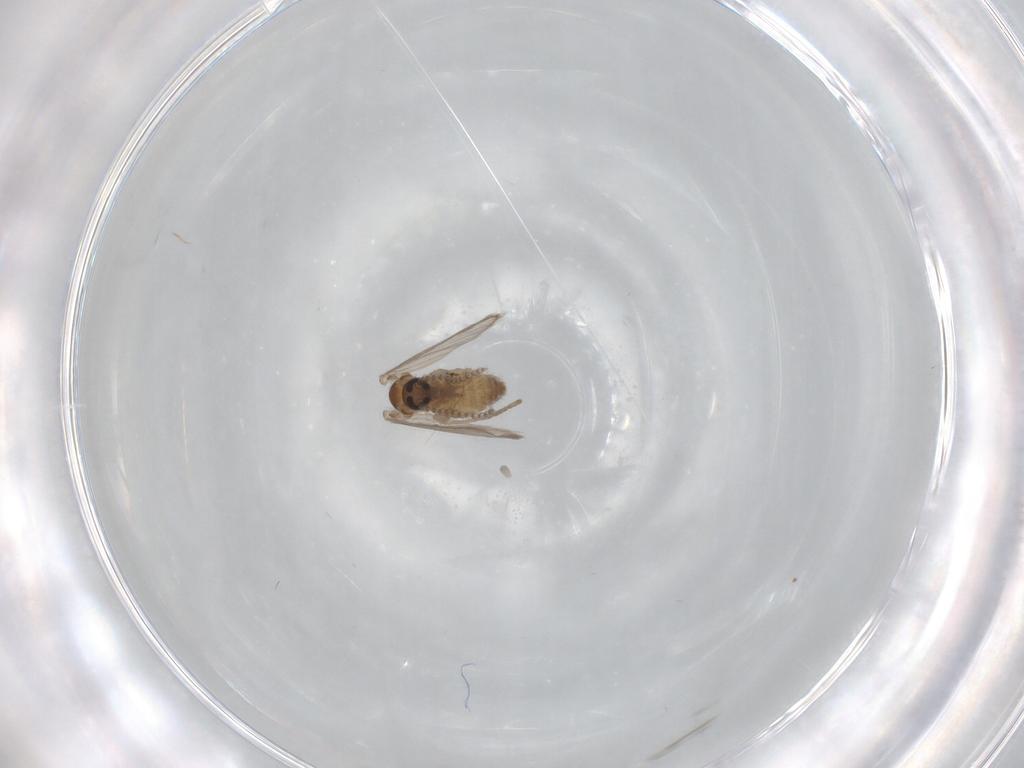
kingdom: Animalia
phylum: Arthropoda
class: Insecta
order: Diptera
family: Psychodidae
